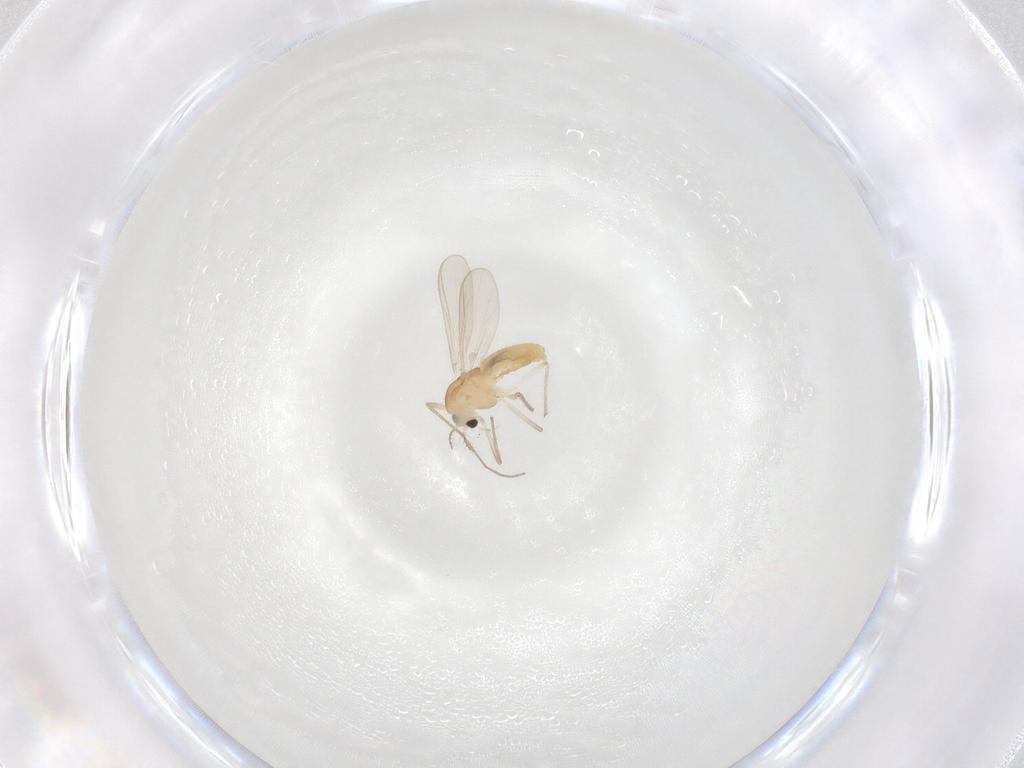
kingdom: Animalia
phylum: Arthropoda
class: Insecta
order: Diptera
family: Chironomidae
